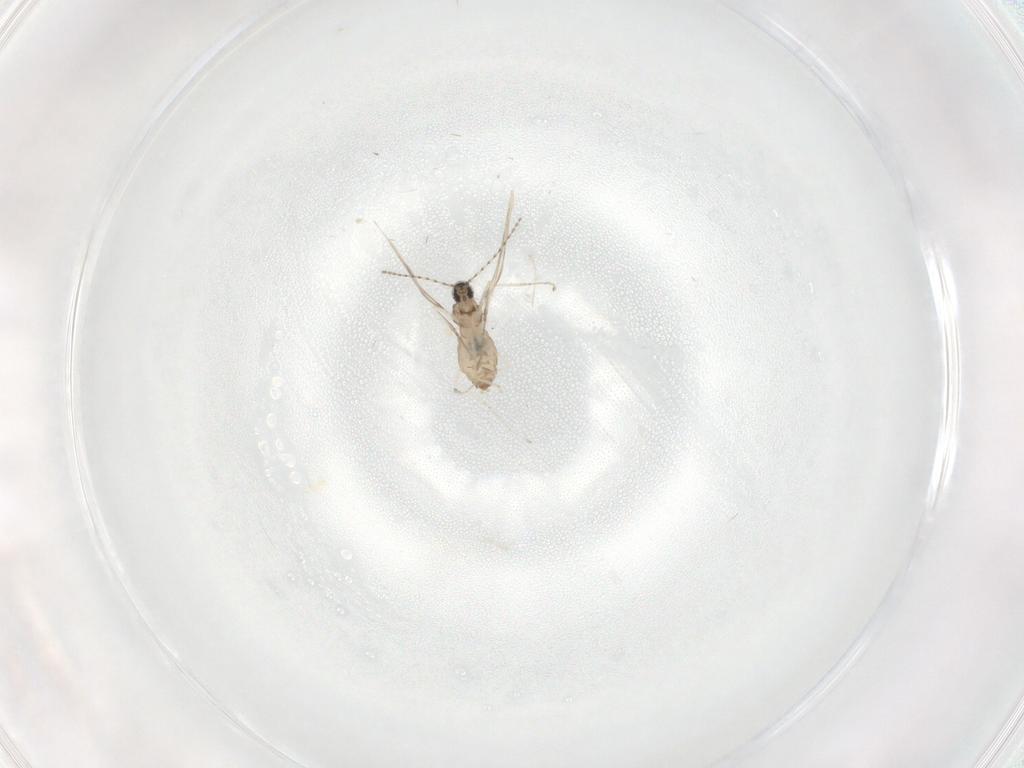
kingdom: Animalia
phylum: Arthropoda
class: Insecta
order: Diptera
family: Cecidomyiidae
